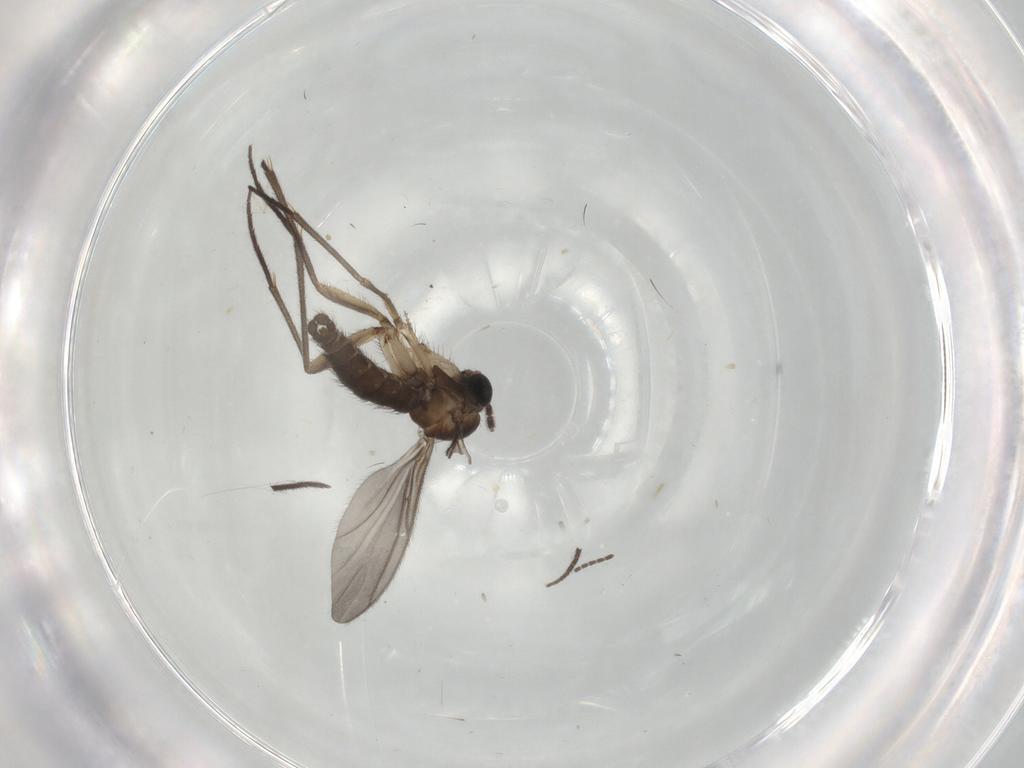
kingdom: Animalia
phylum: Arthropoda
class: Insecta
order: Diptera
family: Sciaridae
